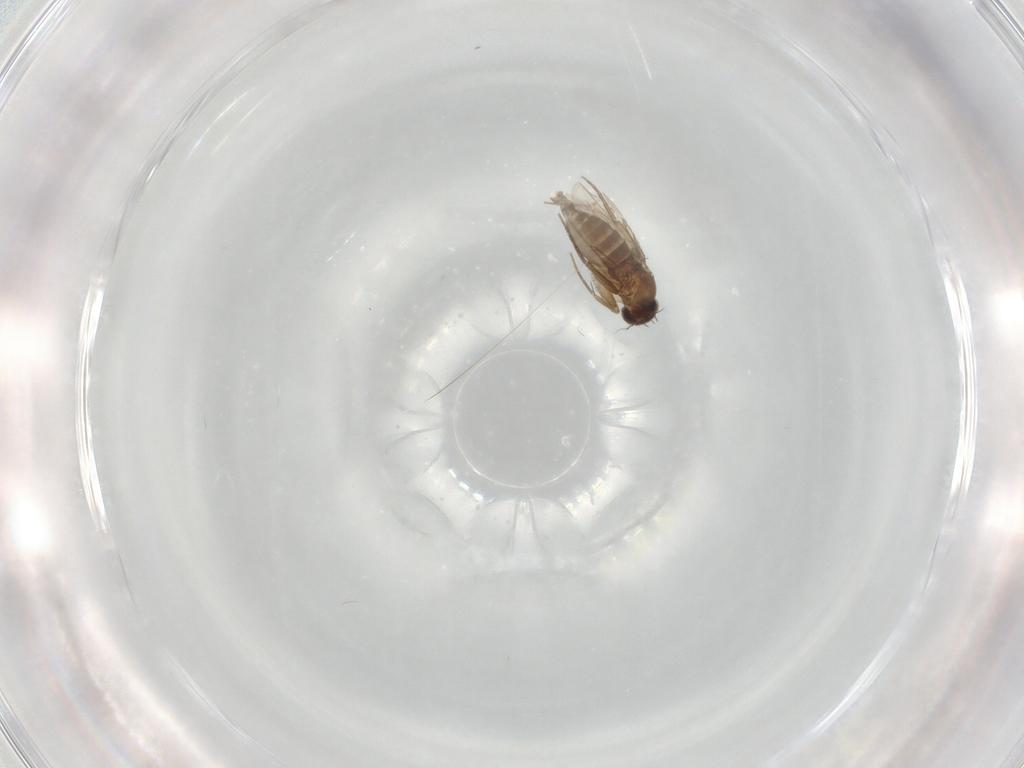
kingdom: Animalia
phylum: Arthropoda
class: Insecta
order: Diptera
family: Cecidomyiidae
